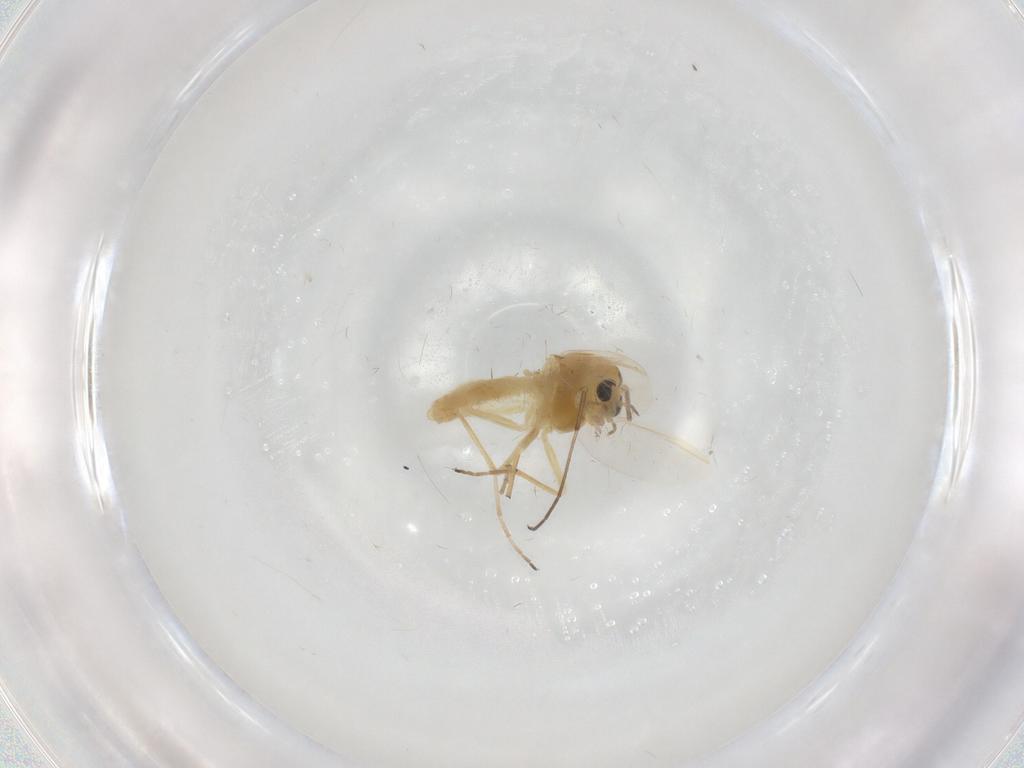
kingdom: Animalia
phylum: Arthropoda
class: Insecta
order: Diptera
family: Chironomidae
